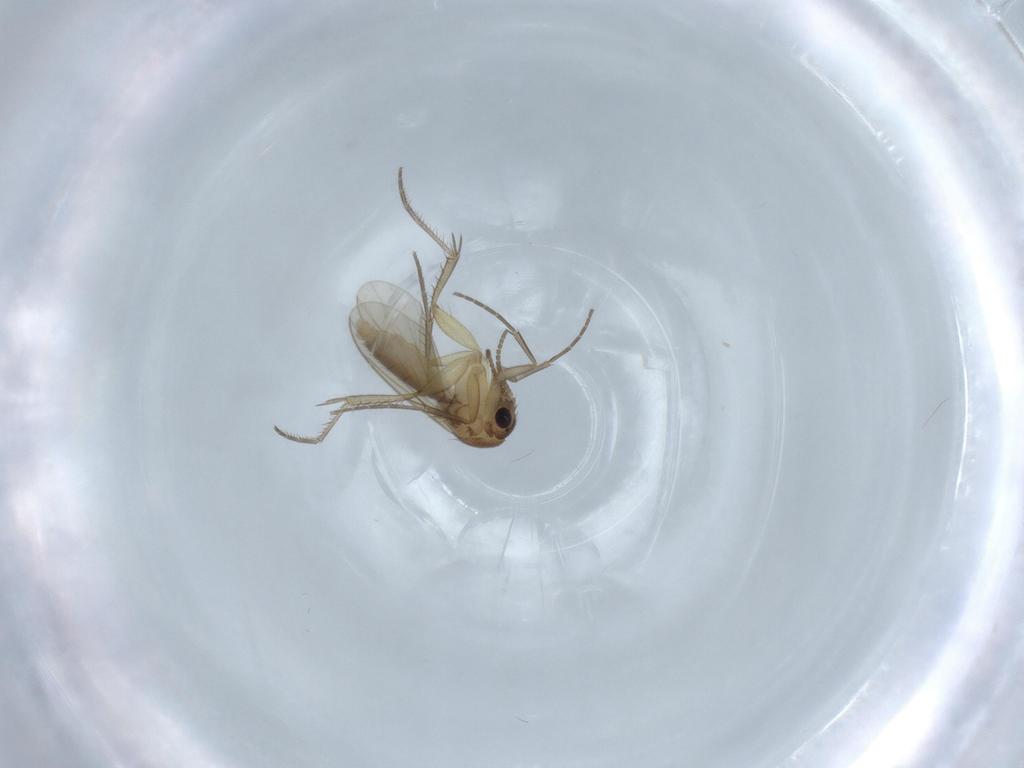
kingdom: Animalia
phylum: Arthropoda
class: Insecta
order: Diptera
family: Mycetophilidae
